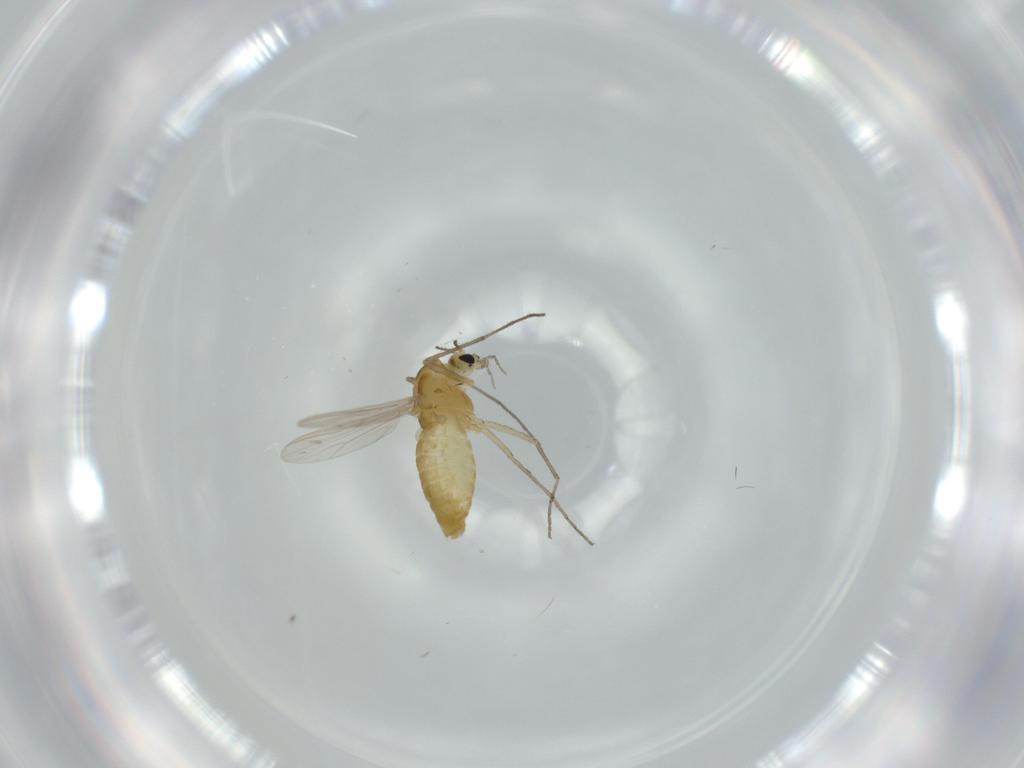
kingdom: Animalia
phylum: Arthropoda
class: Insecta
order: Diptera
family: Chironomidae
